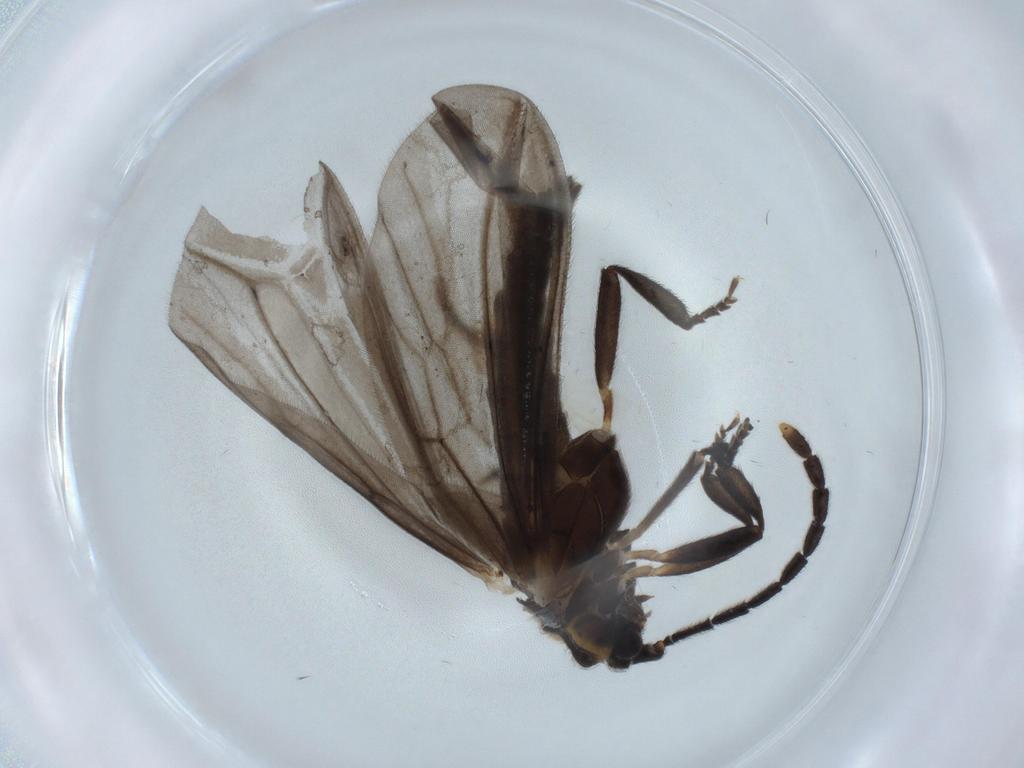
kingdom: Animalia
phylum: Arthropoda
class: Insecta
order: Coleoptera
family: Lycidae
